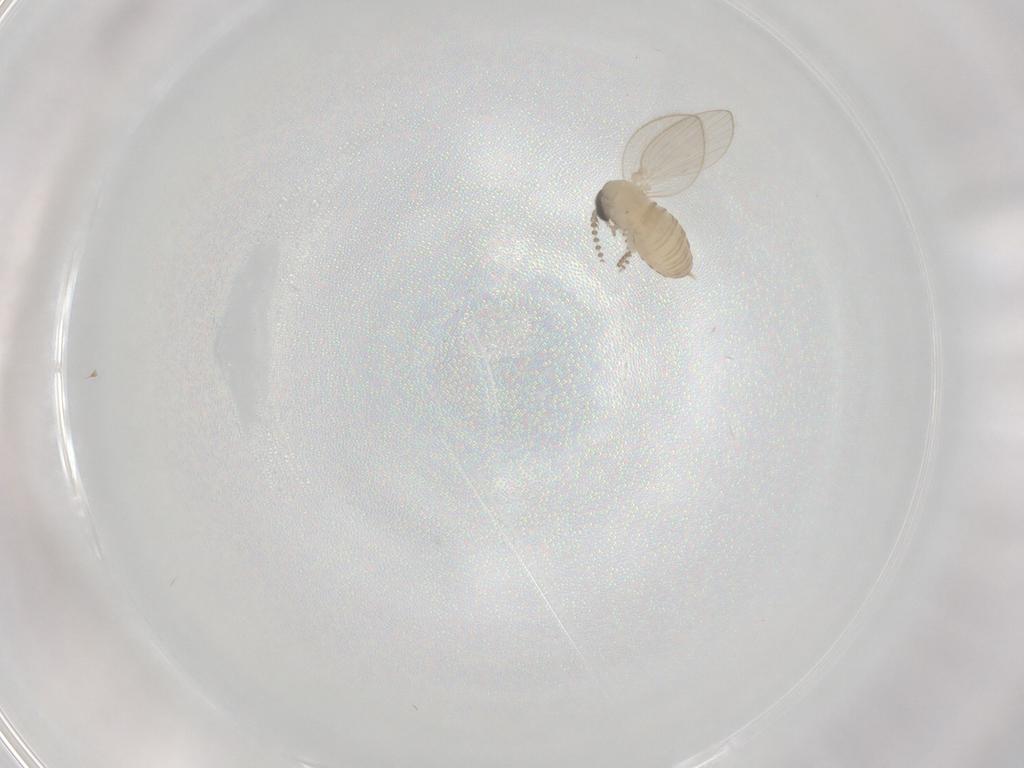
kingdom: Animalia
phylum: Arthropoda
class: Insecta
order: Diptera
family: Psychodidae
